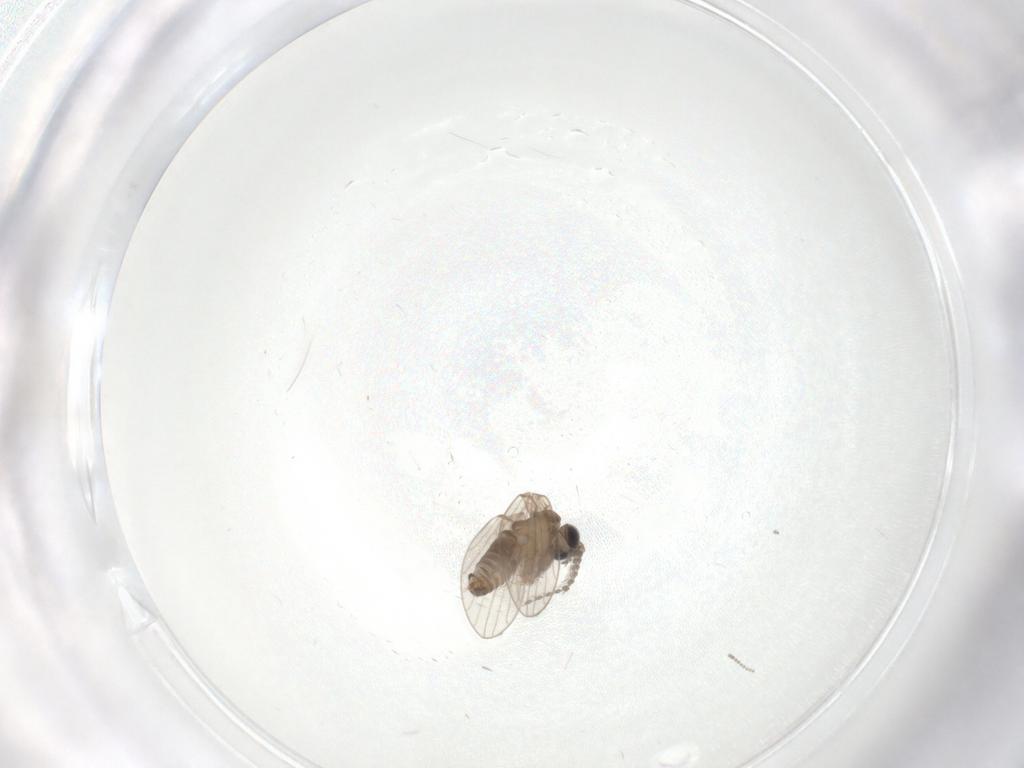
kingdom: Animalia
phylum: Arthropoda
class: Insecta
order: Diptera
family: Psychodidae
